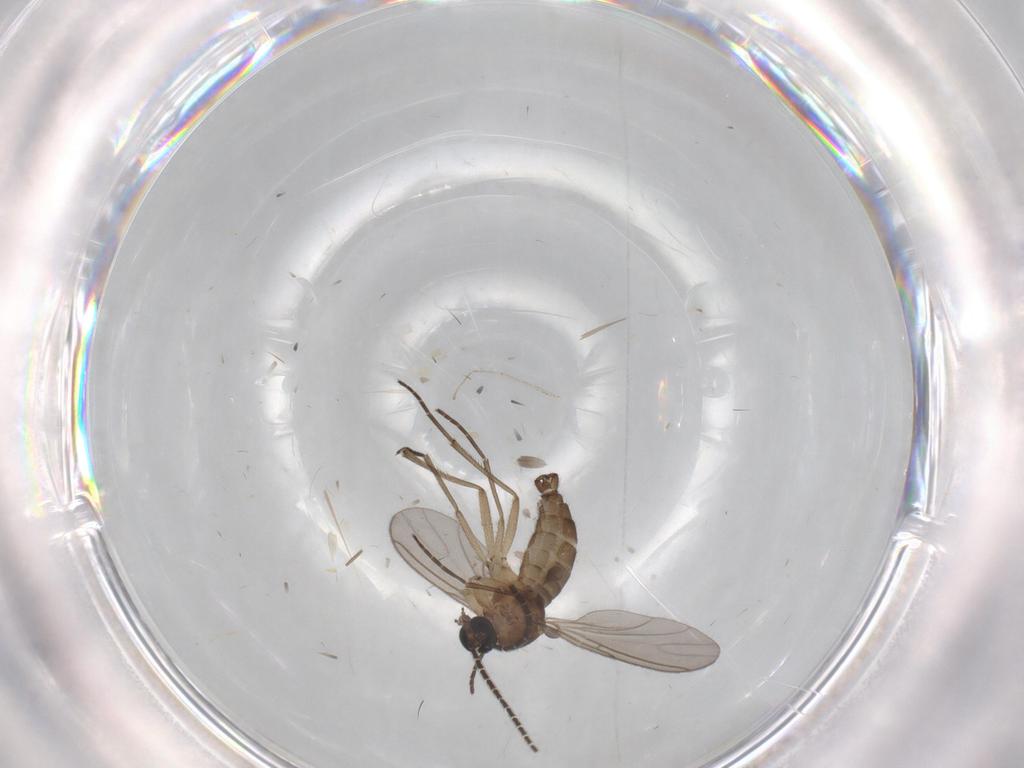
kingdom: Animalia
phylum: Arthropoda
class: Insecta
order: Diptera
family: Sciaridae
